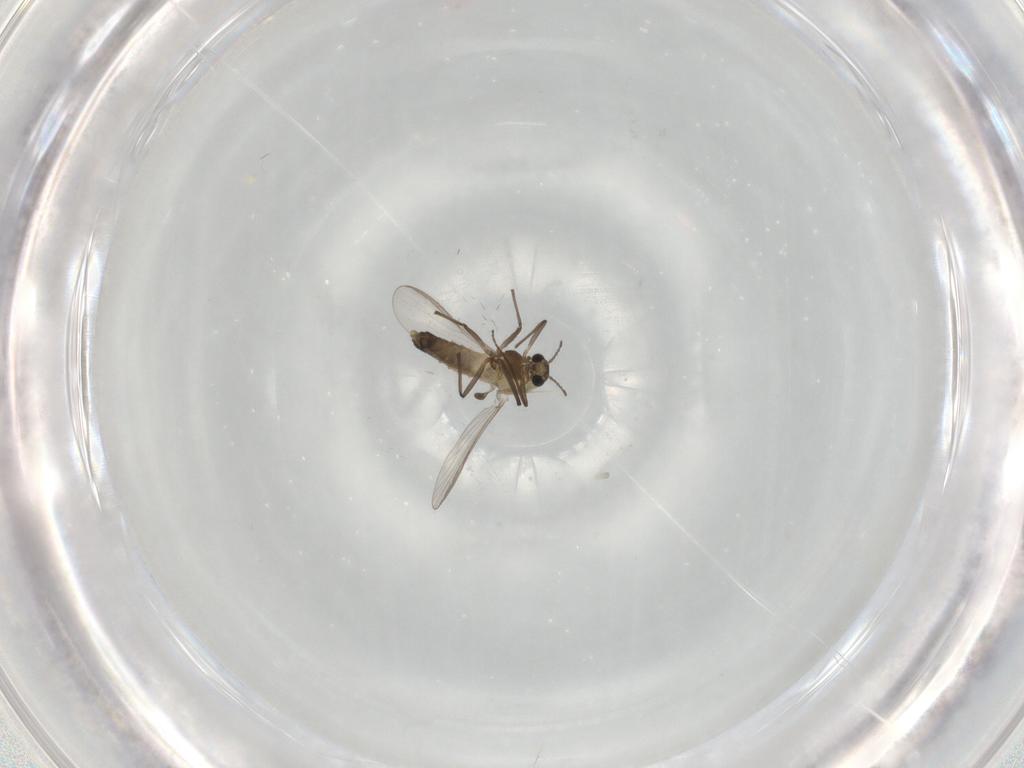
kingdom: Animalia
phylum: Arthropoda
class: Insecta
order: Diptera
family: Chironomidae
